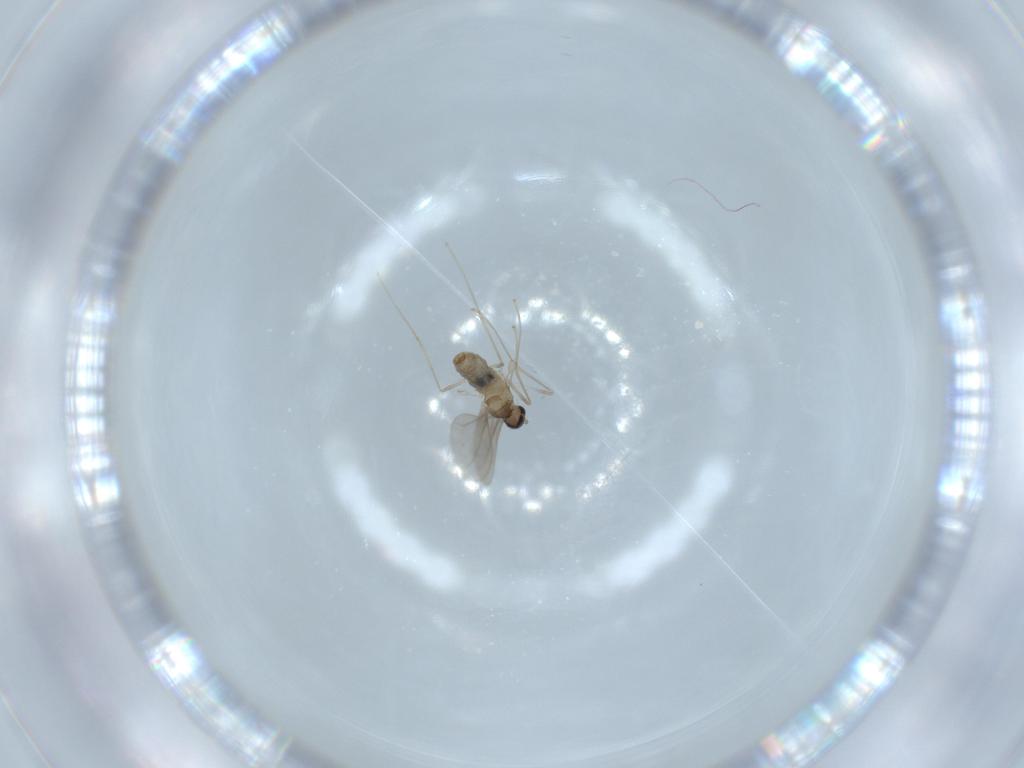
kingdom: Animalia
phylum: Arthropoda
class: Insecta
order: Diptera
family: Cecidomyiidae
